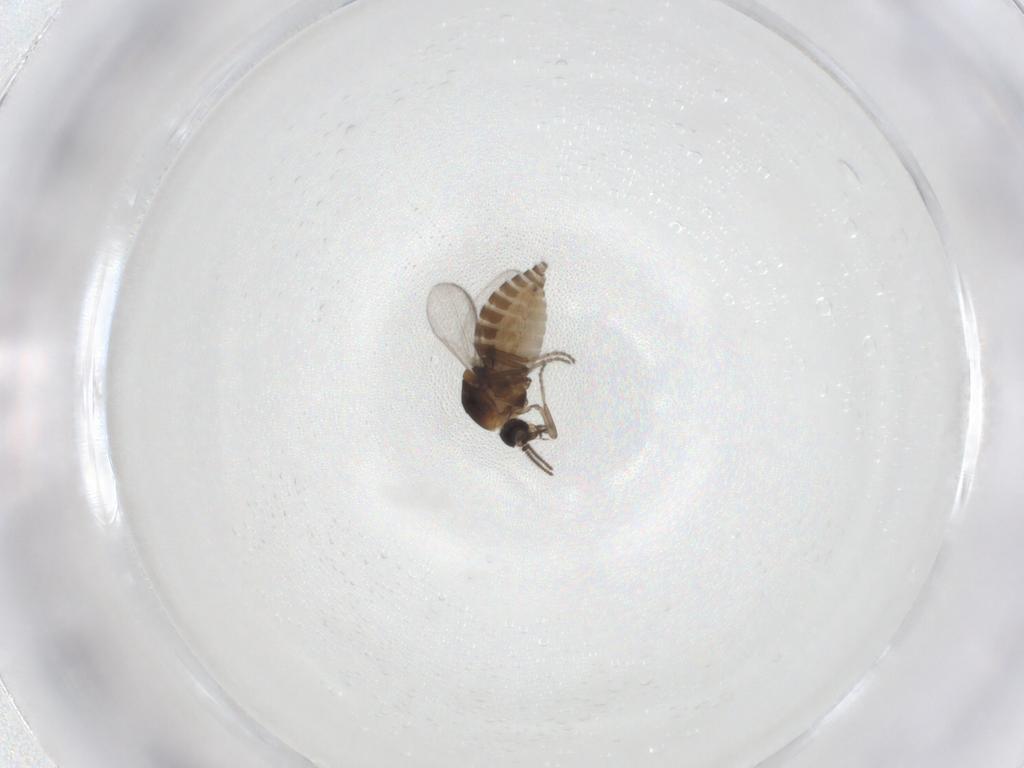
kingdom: Animalia
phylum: Arthropoda
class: Insecta
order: Diptera
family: Ceratopogonidae
